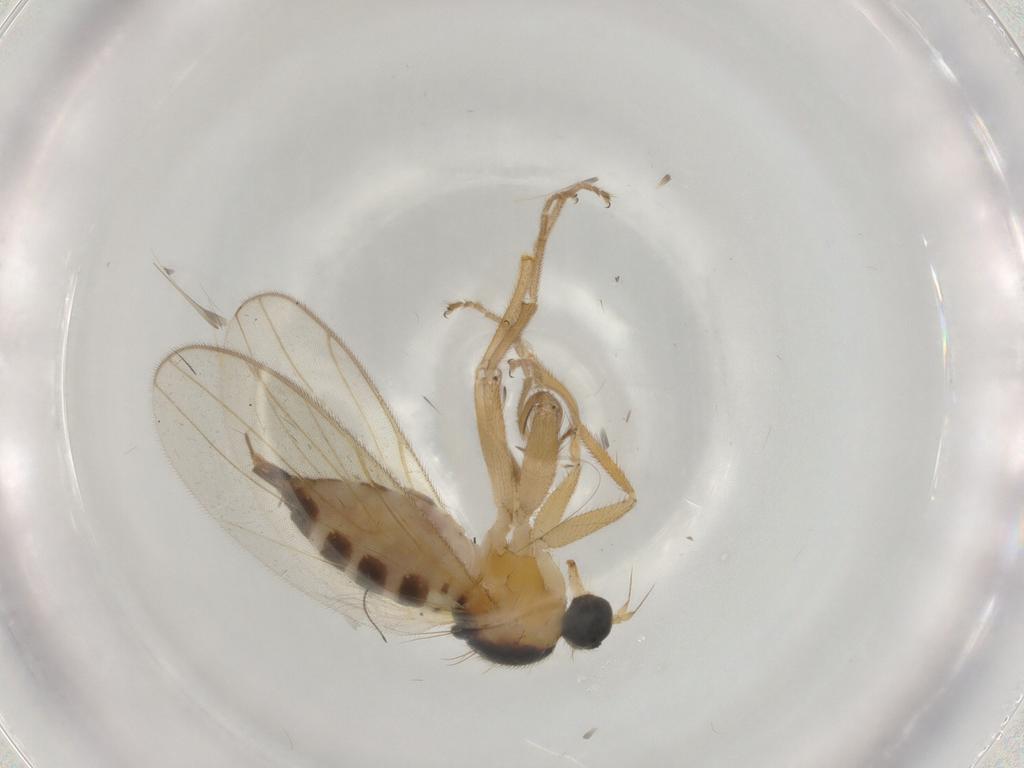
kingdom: Animalia
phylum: Arthropoda
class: Insecta
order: Diptera
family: Hybotidae
